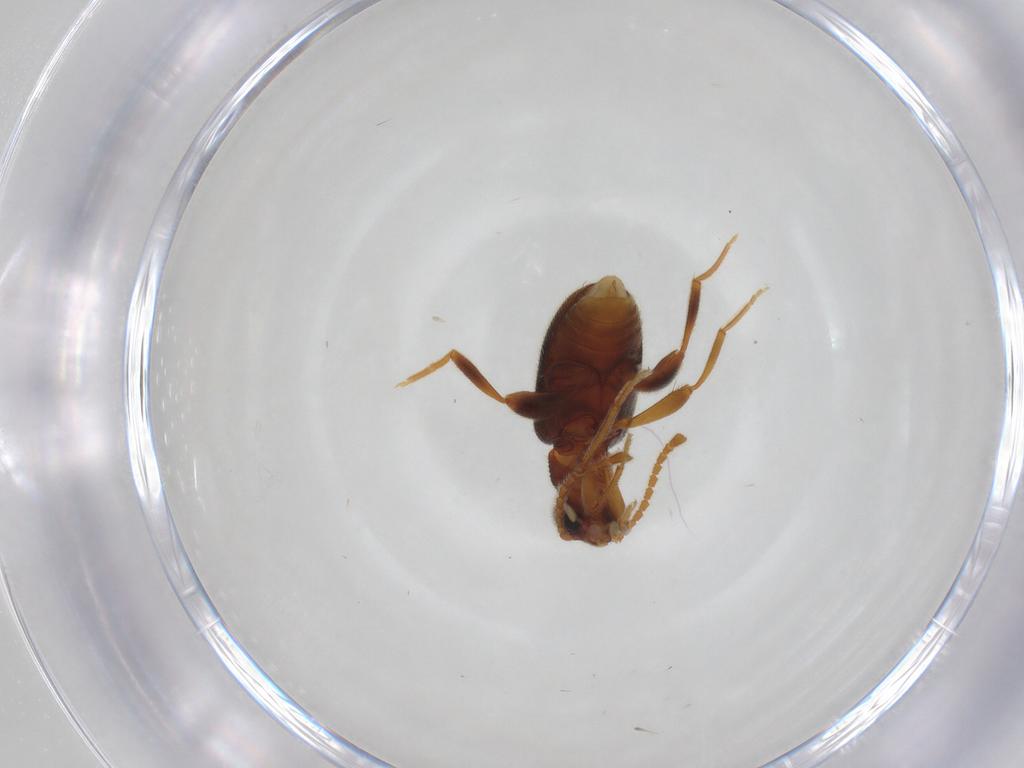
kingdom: Animalia
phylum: Arthropoda
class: Insecta
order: Coleoptera
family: Aderidae
